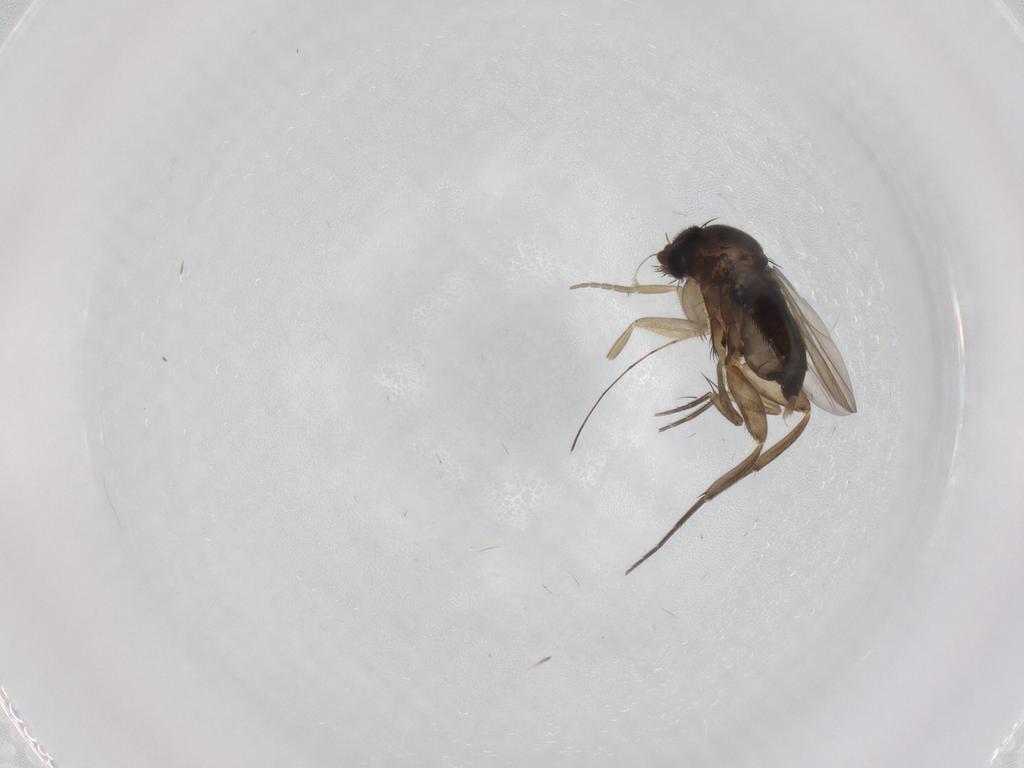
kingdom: Animalia
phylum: Arthropoda
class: Insecta
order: Diptera
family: Phoridae
